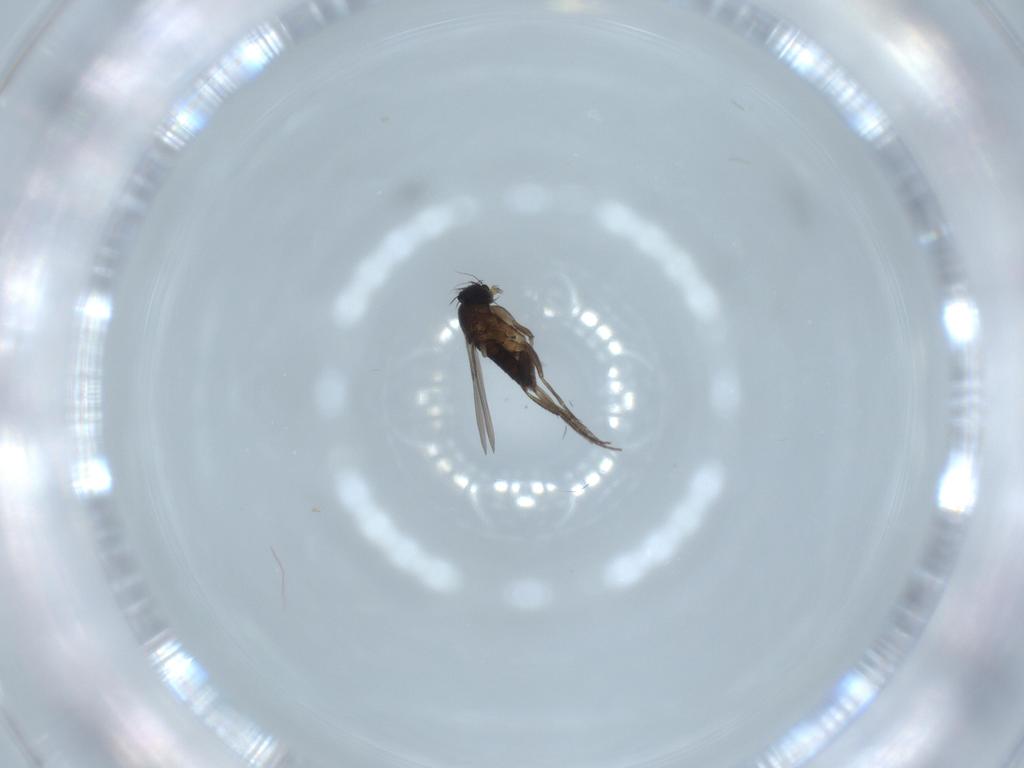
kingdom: Animalia
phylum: Arthropoda
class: Insecta
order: Diptera
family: Phoridae
